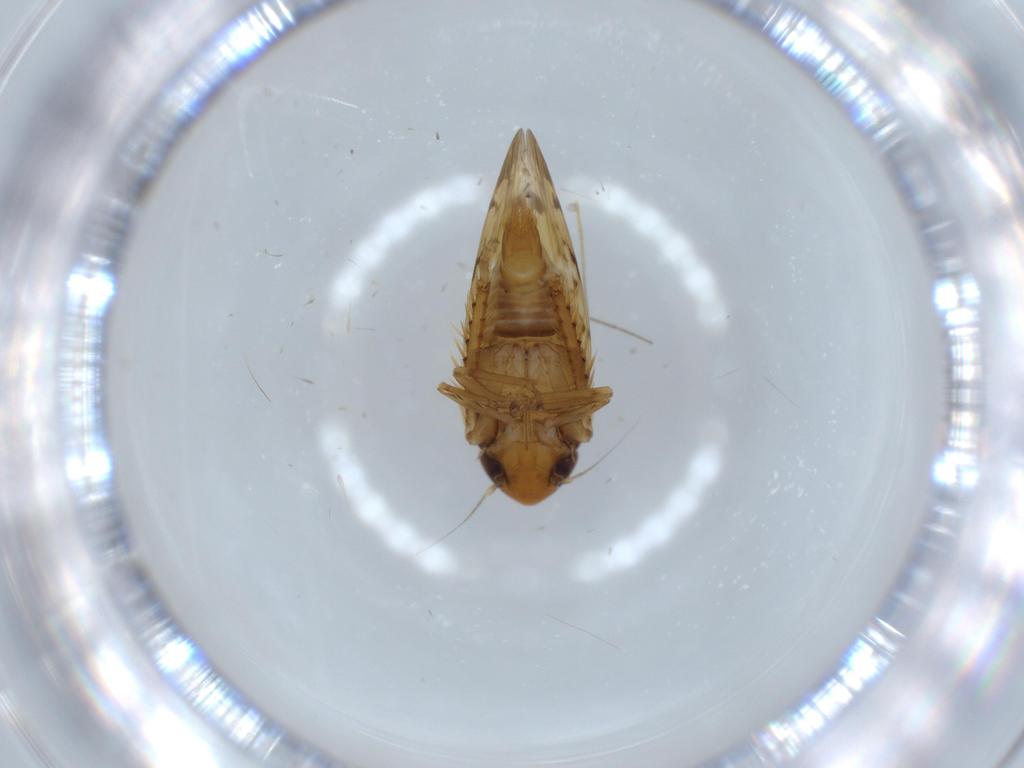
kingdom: Animalia
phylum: Arthropoda
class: Insecta
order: Hemiptera
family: Cicadellidae
